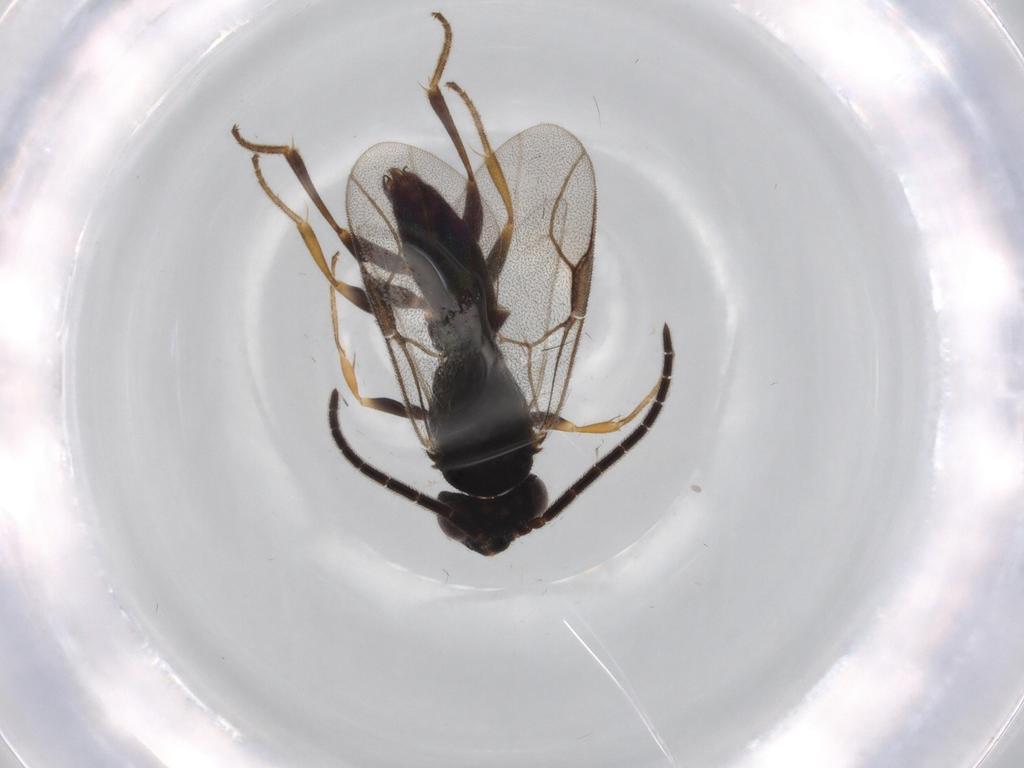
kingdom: Animalia
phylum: Arthropoda
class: Insecta
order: Hymenoptera
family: Dryinidae
